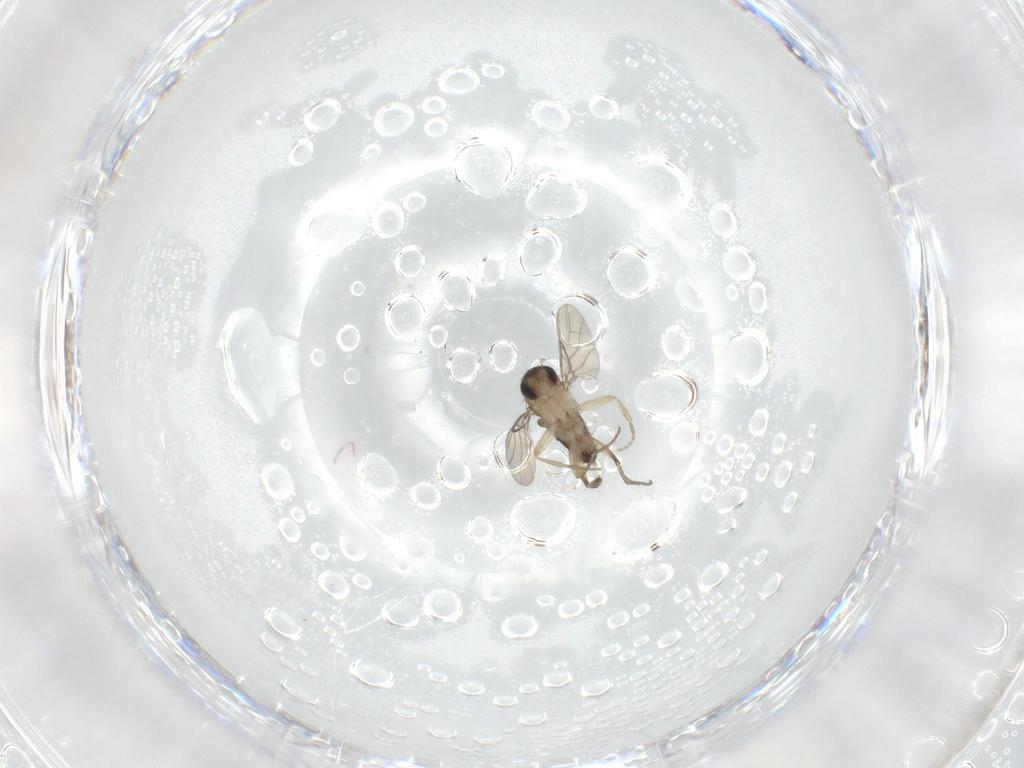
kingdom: Animalia
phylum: Arthropoda
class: Insecta
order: Diptera
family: Phoridae
